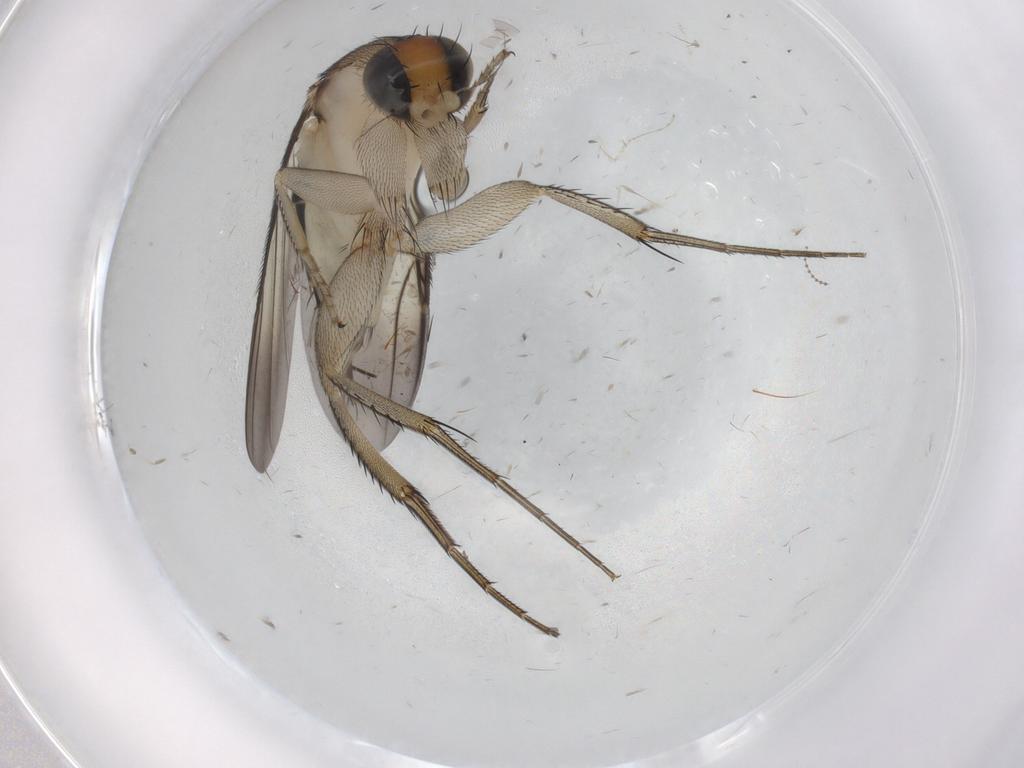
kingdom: Animalia
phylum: Arthropoda
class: Insecta
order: Diptera
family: Phoridae
